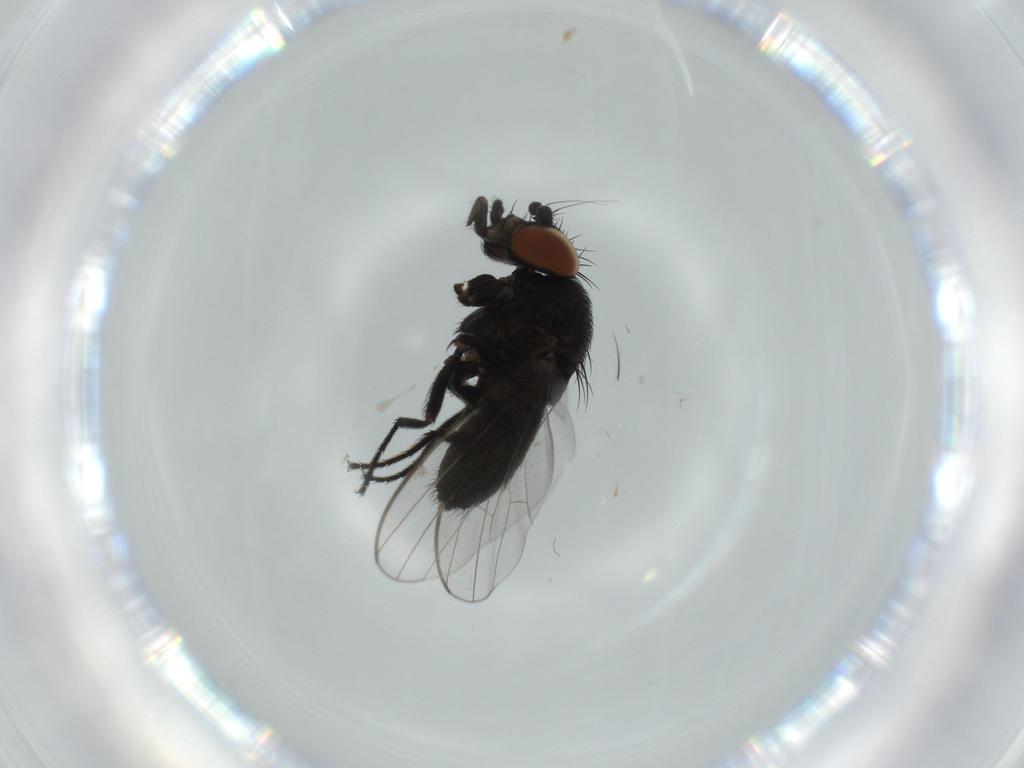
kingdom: Animalia
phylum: Arthropoda
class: Insecta
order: Diptera
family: Milichiidae
